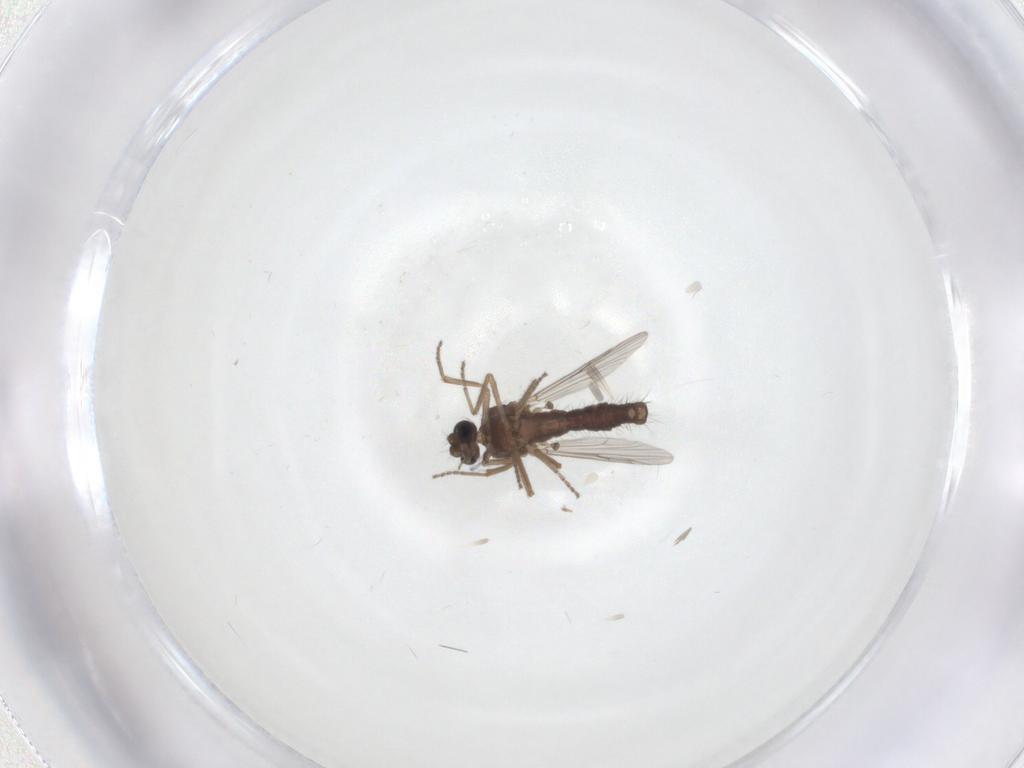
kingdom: Animalia
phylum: Arthropoda
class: Insecta
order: Diptera
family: Ceratopogonidae
